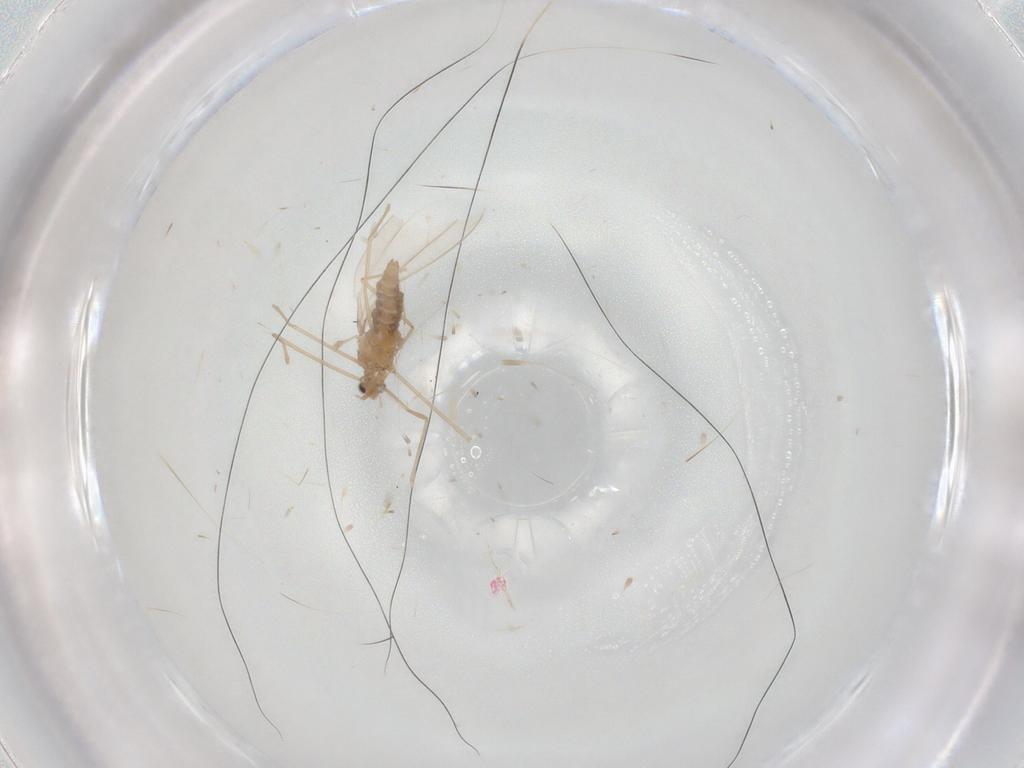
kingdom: Animalia
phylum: Arthropoda
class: Insecta
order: Diptera
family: Cecidomyiidae
